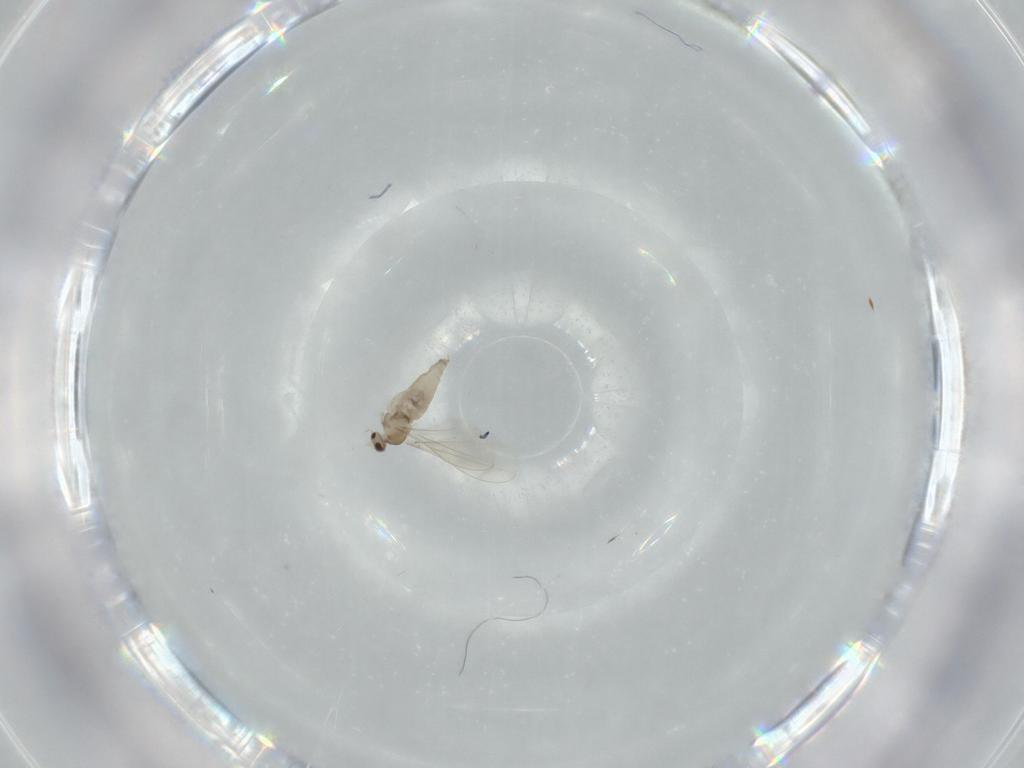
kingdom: Animalia
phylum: Arthropoda
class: Insecta
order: Diptera
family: Cecidomyiidae
